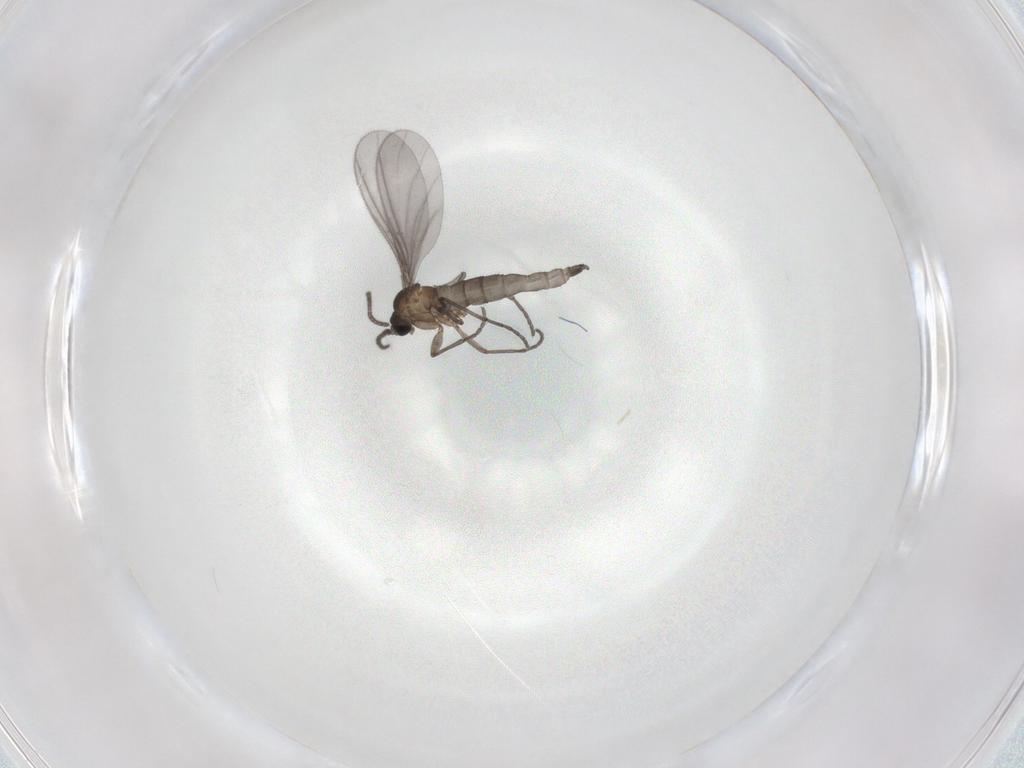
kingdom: Animalia
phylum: Arthropoda
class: Insecta
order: Diptera
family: Sciaridae
